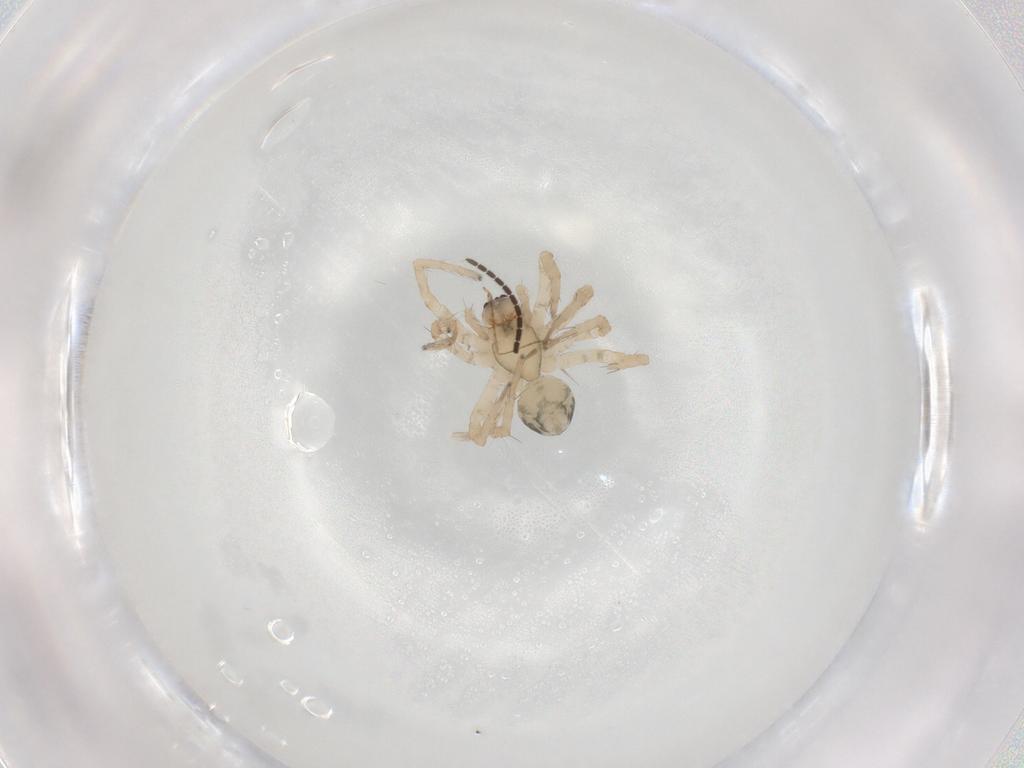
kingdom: Animalia
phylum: Arthropoda
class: Arachnida
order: Araneae
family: Amaurobiidae
